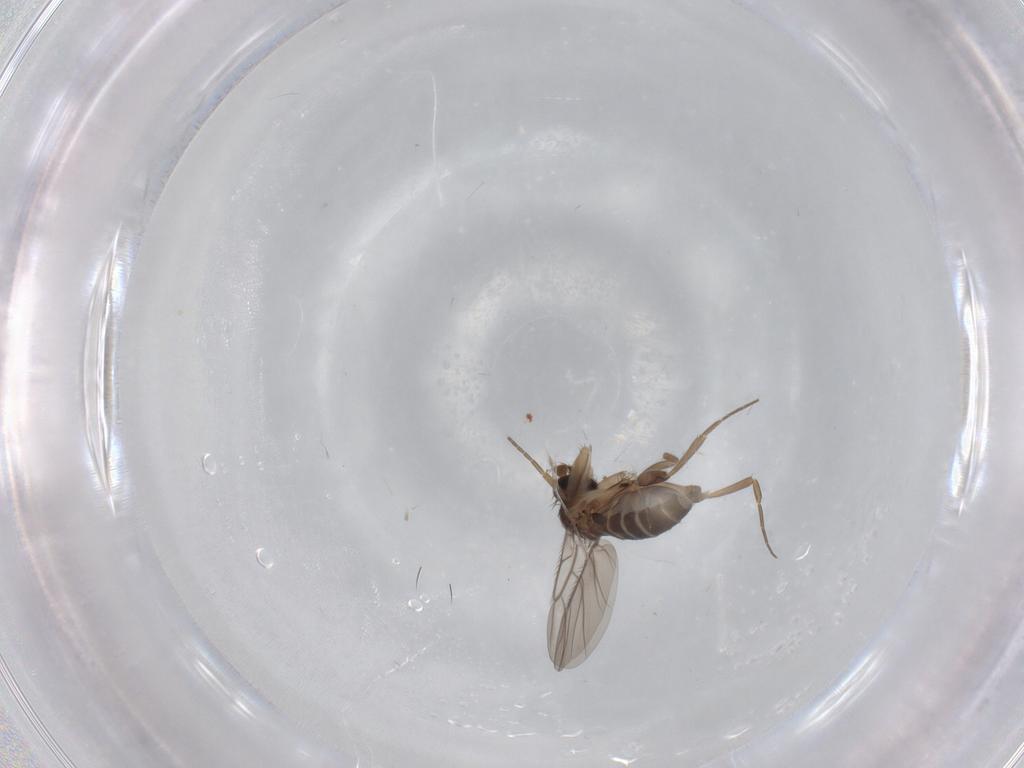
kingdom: Animalia
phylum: Arthropoda
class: Insecta
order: Diptera
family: Phoridae
